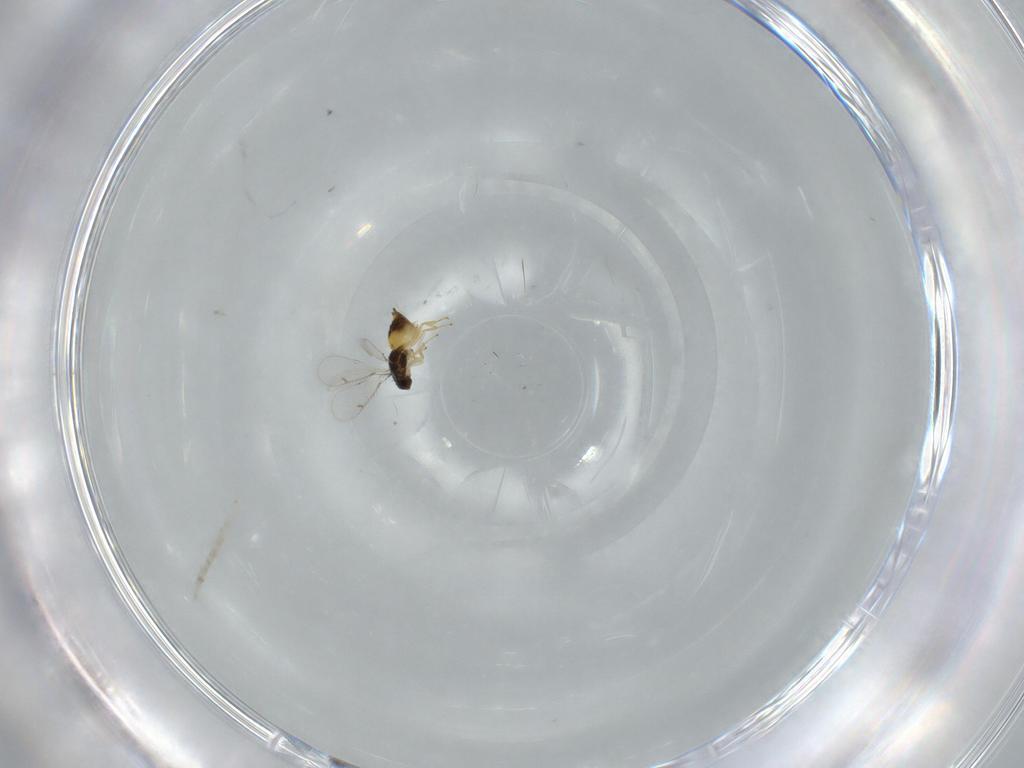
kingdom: Animalia
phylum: Arthropoda
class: Insecta
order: Hymenoptera
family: Formicidae
